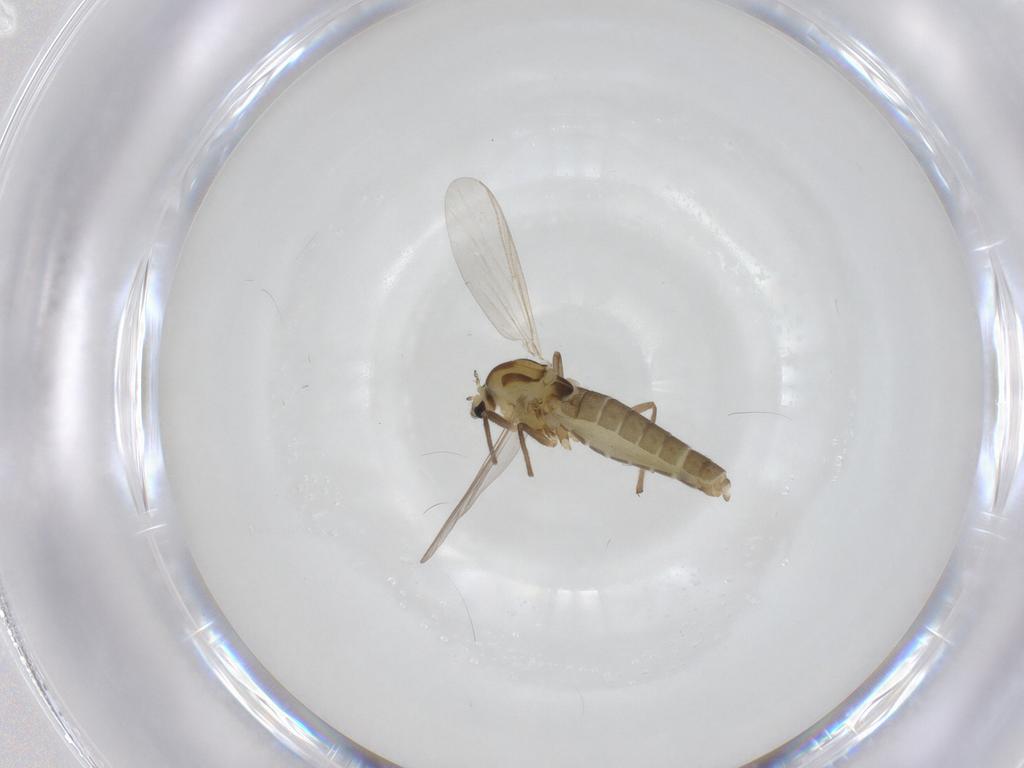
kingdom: Animalia
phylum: Arthropoda
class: Insecta
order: Diptera
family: Chironomidae
